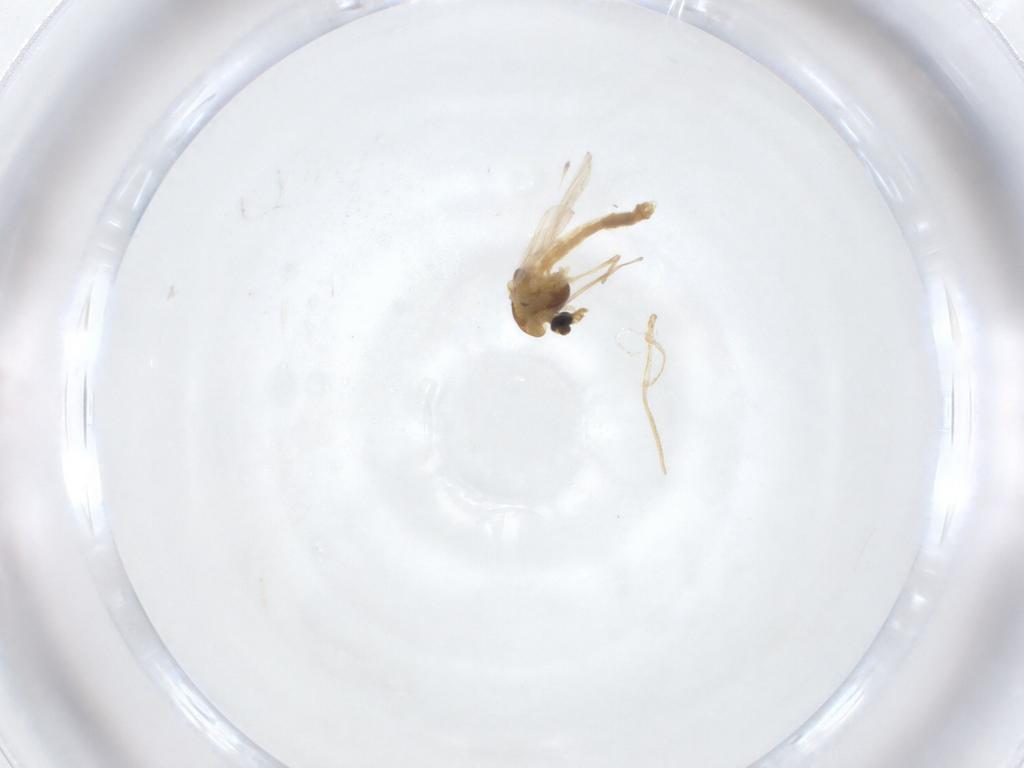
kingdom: Animalia
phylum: Arthropoda
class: Insecta
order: Diptera
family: Chironomidae
